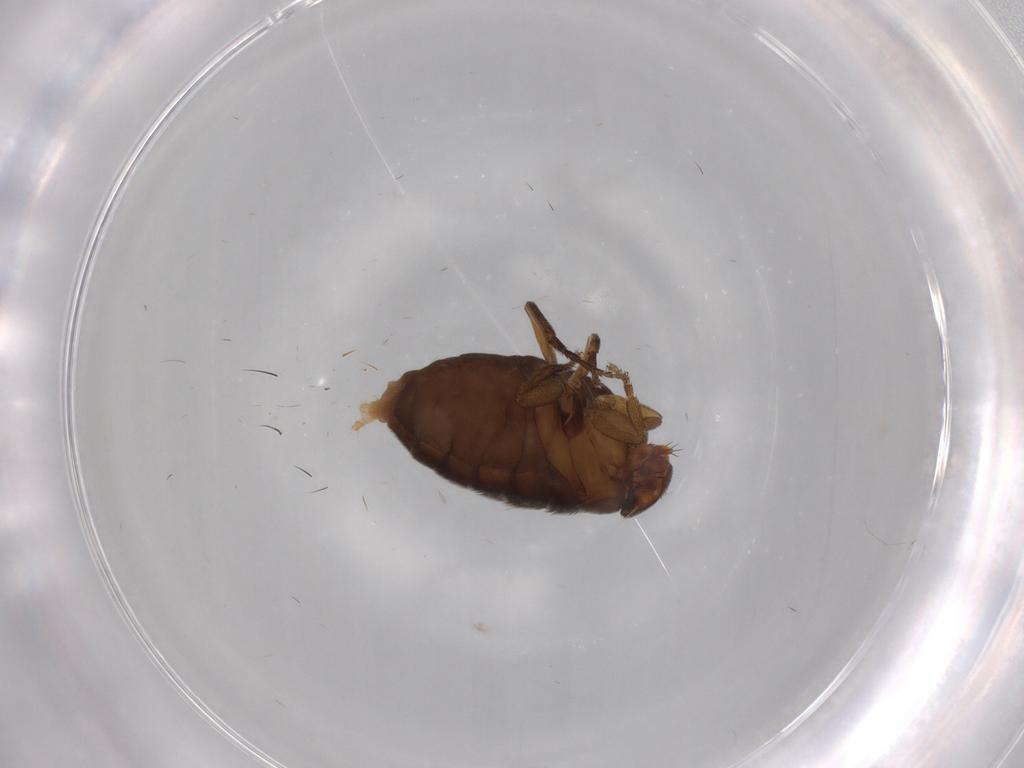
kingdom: Animalia
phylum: Arthropoda
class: Insecta
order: Diptera
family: Phoridae
